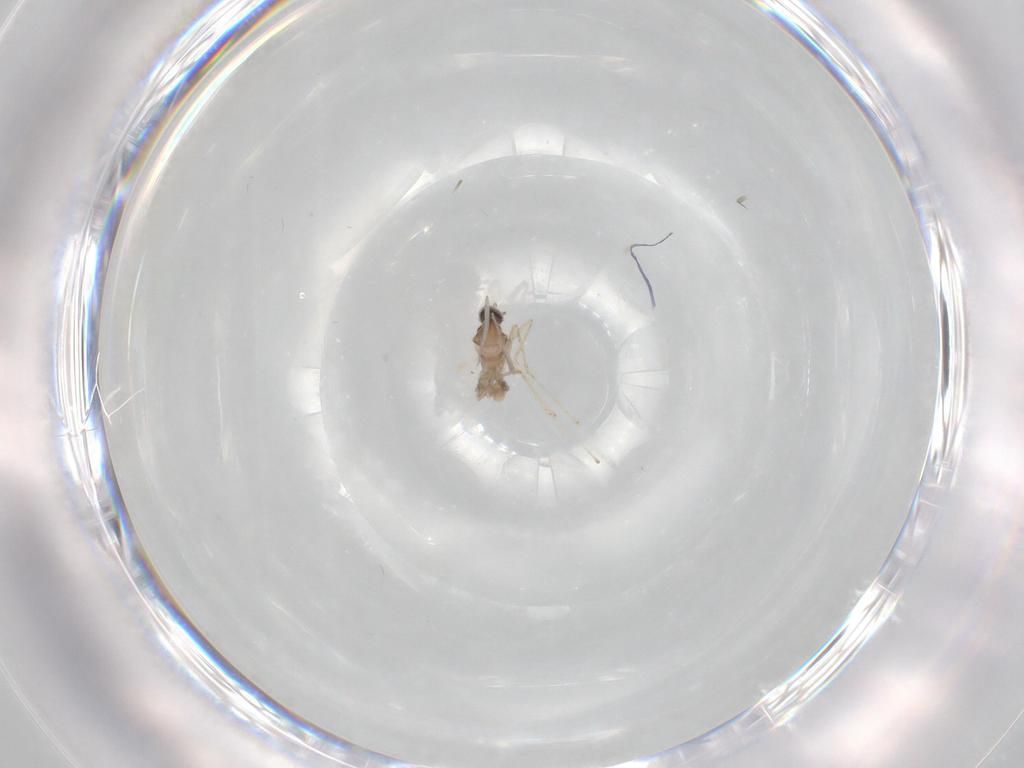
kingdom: Animalia
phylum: Arthropoda
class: Insecta
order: Diptera
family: Cecidomyiidae
